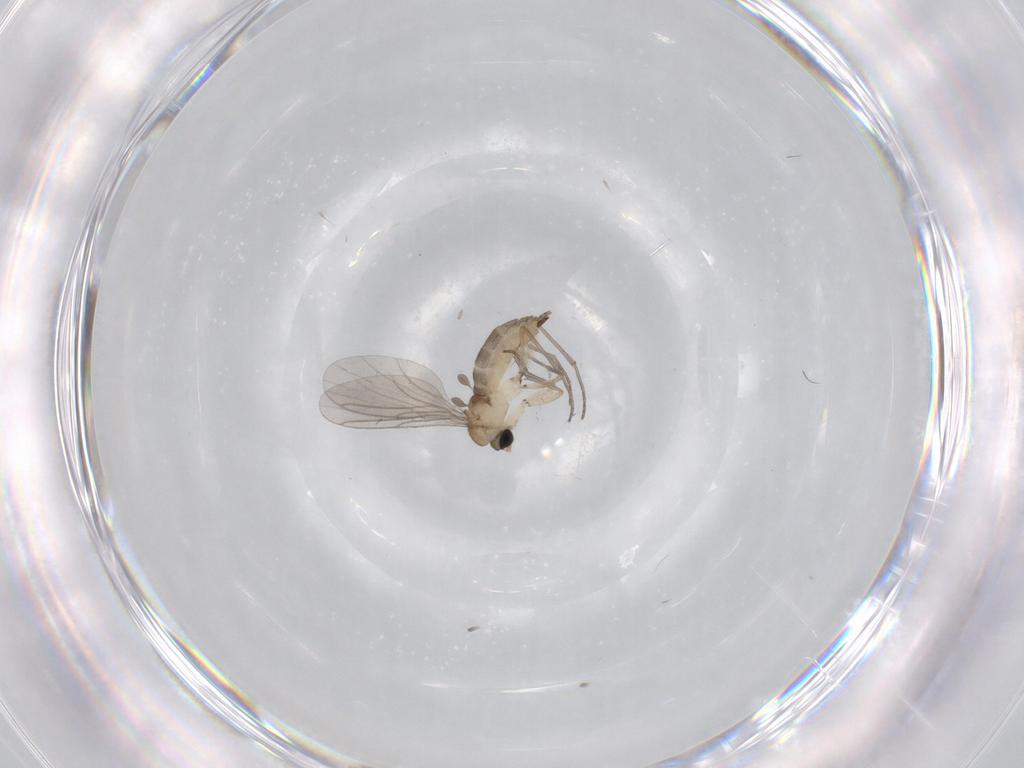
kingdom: Animalia
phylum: Arthropoda
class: Insecta
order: Diptera
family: Sciaridae
